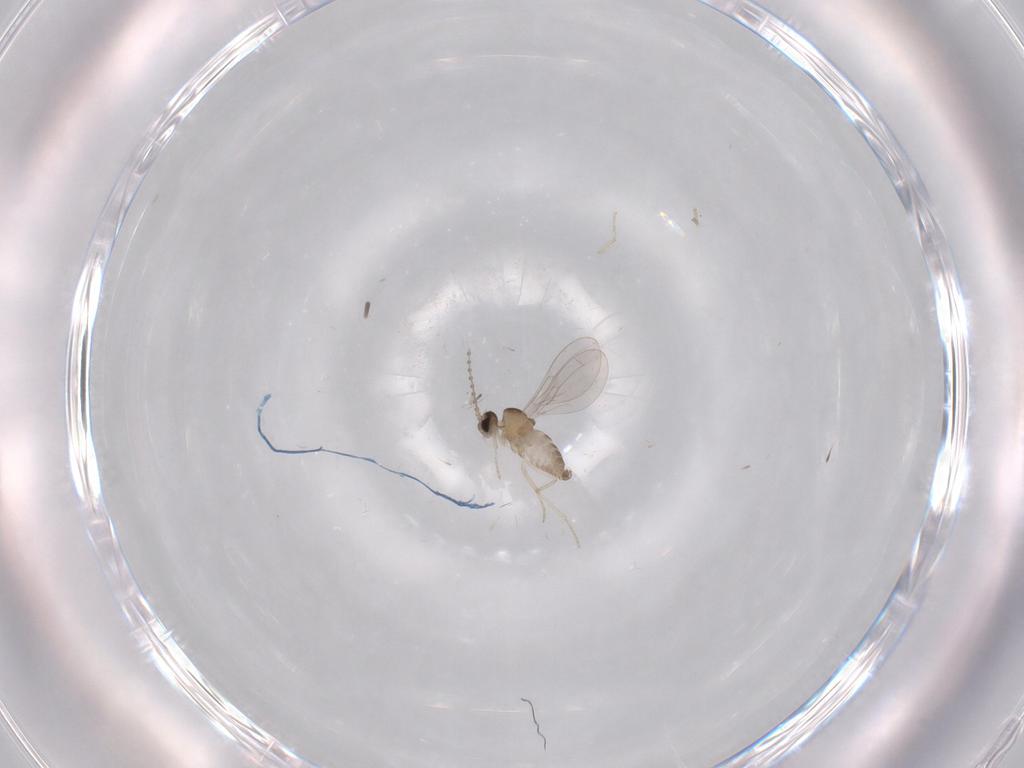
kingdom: Animalia
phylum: Arthropoda
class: Insecta
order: Diptera
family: Cecidomyiidae
